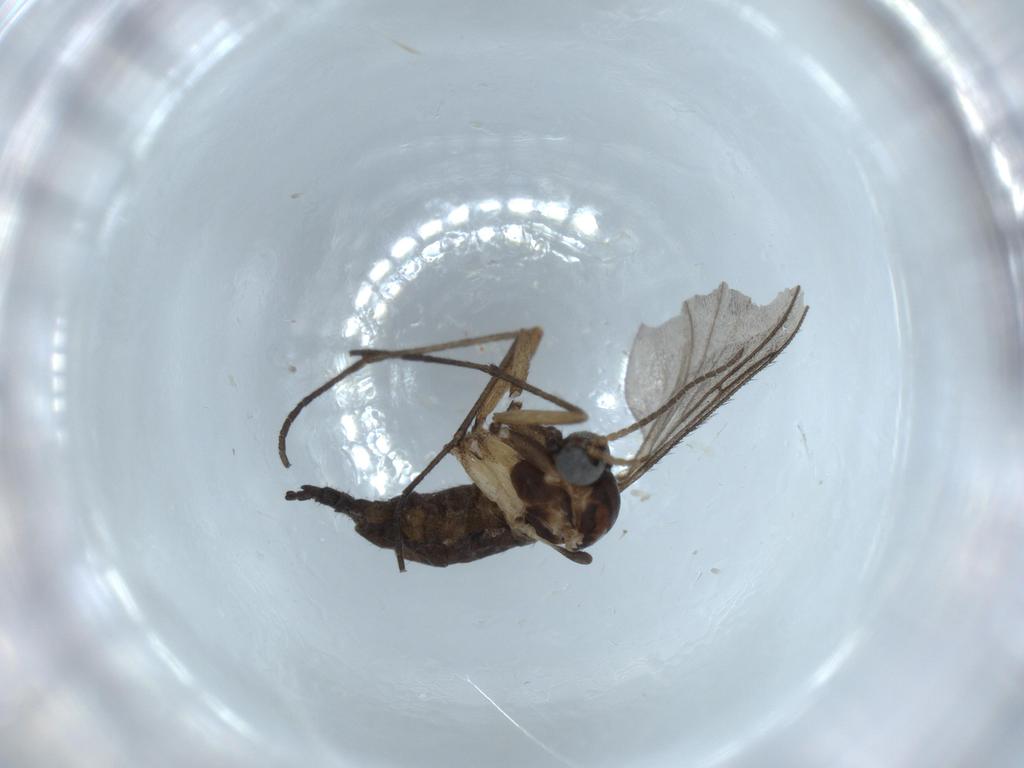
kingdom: Animalia
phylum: Arthropoda
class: Insecta
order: Diptera
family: Sciaridae
